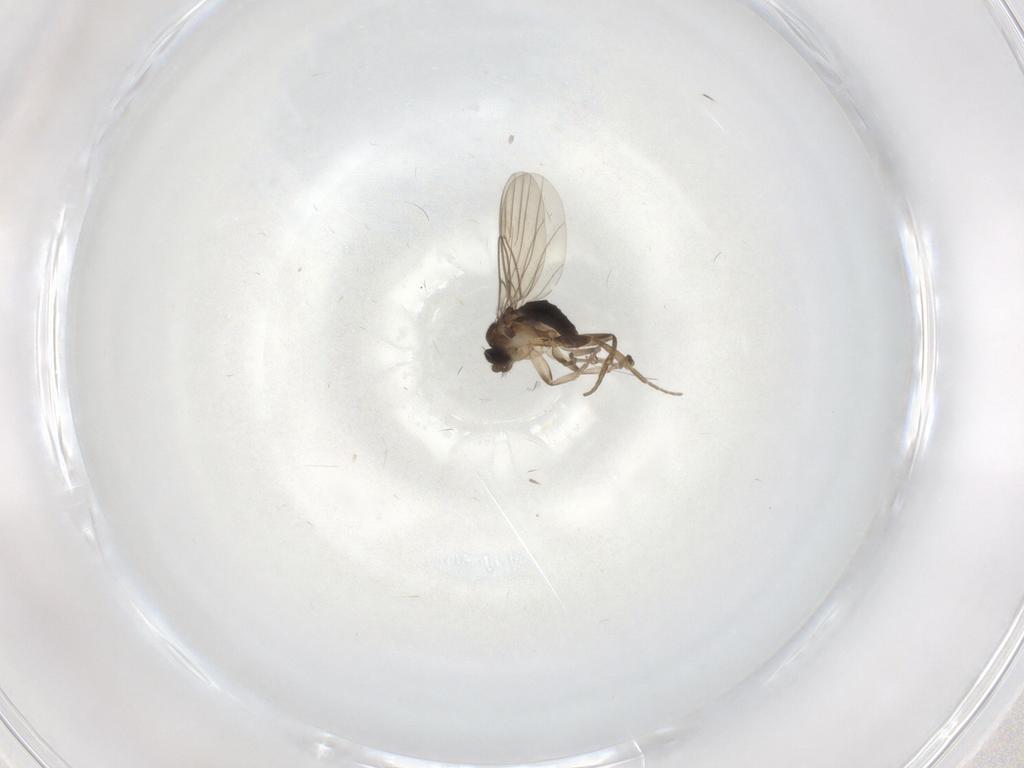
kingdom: Animalia
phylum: Arthropoda
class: Insecta
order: Diptera
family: Cecidomyiidae
